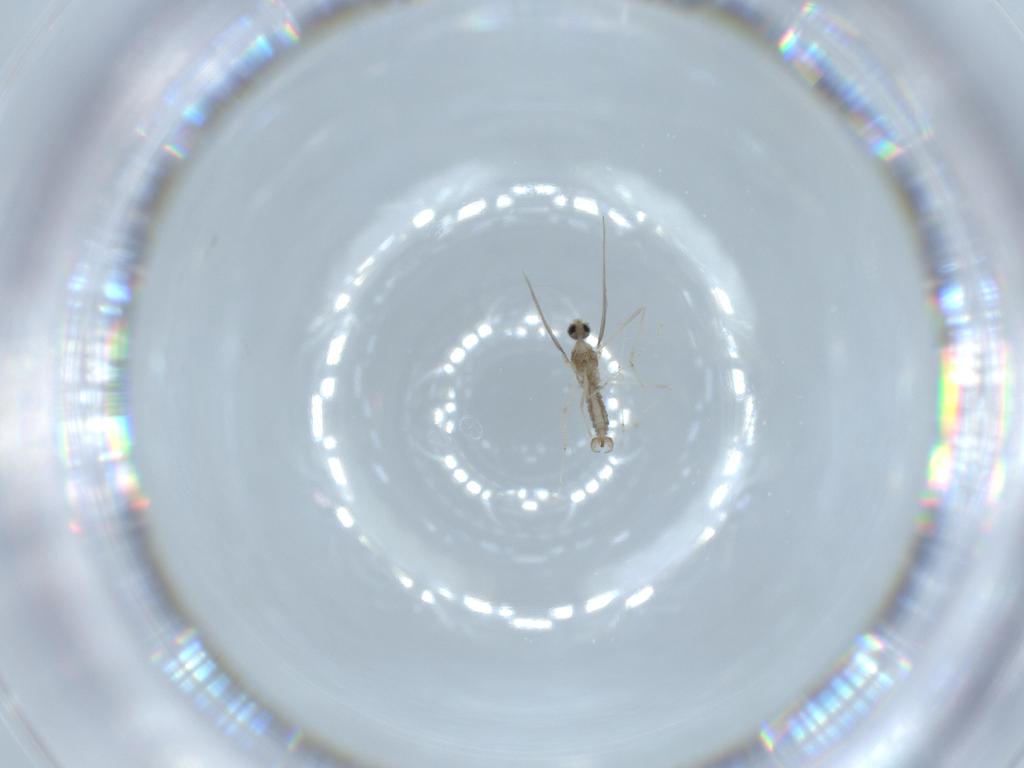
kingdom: Animalia
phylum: Arthropoda
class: Insecta
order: Diptera
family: Cecidomyiidae
